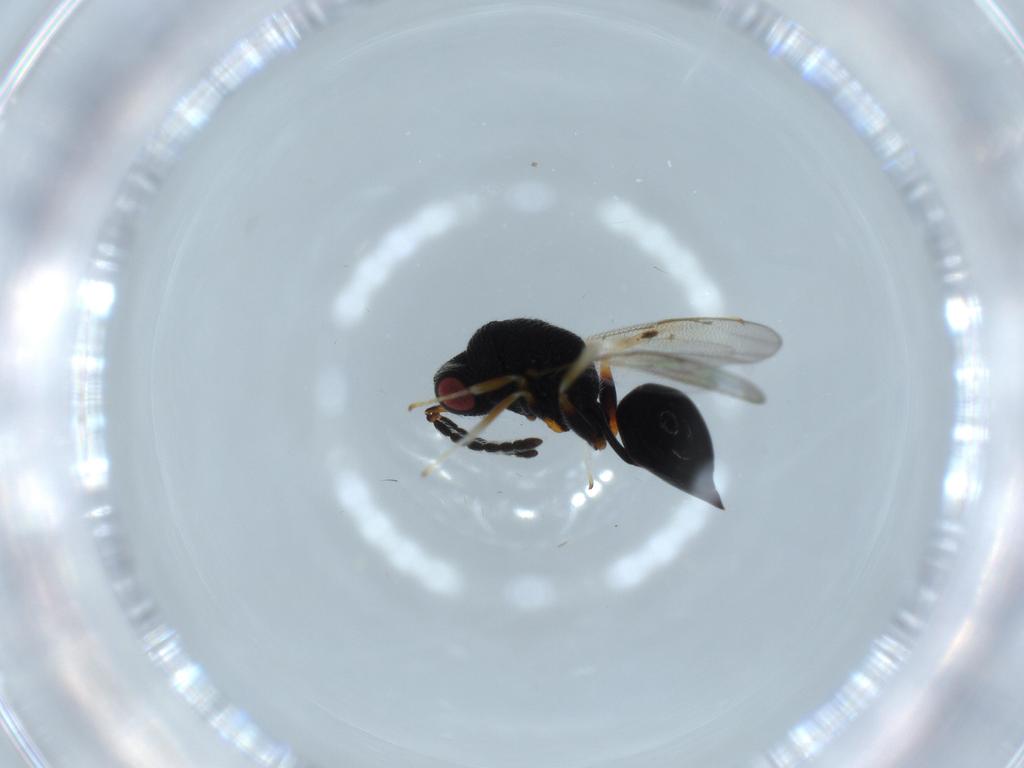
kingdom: Animalia
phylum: Arthropoda
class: Insecta
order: Hymenoptera
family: Eurytomidae
